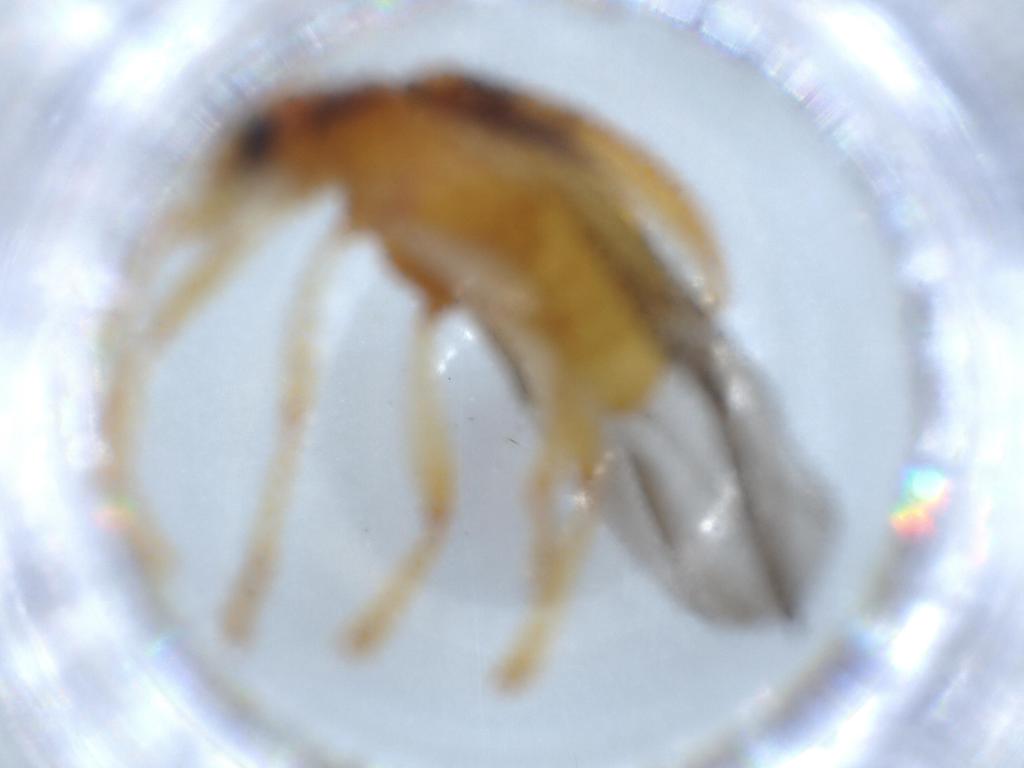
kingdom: Animalia
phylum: Arthropoda
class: Insecta
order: Coleoptera
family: Chrysomelidae
